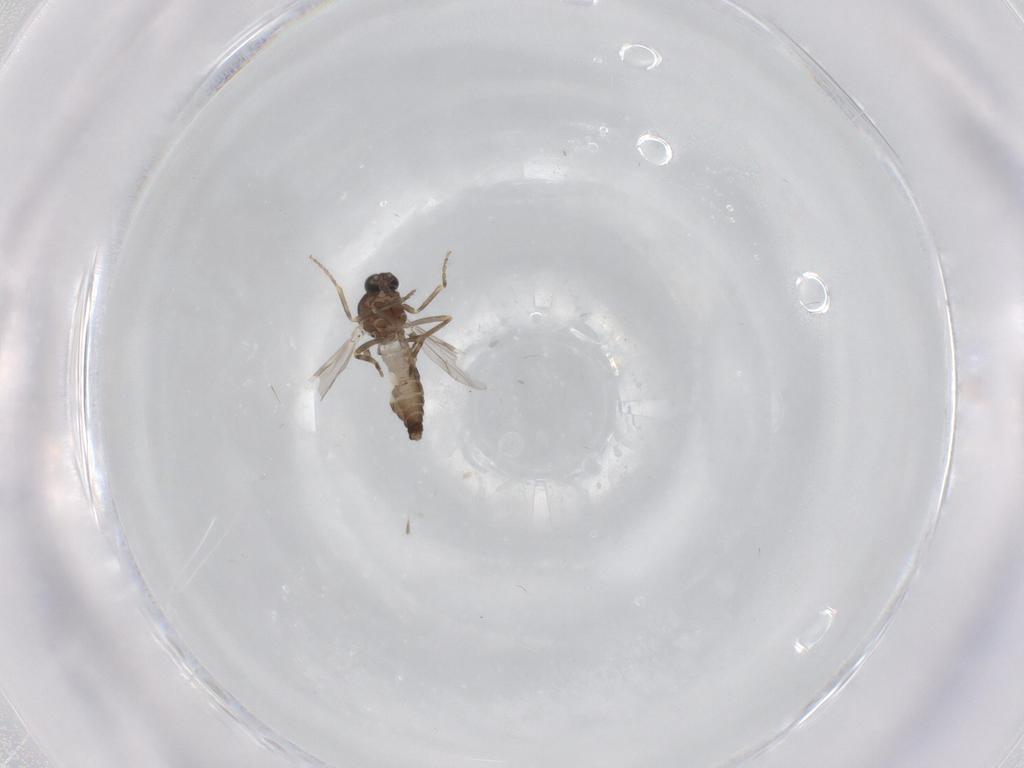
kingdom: Animalia
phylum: Arthropoda
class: Insecta
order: Diptera
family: Ceratopogonidae
